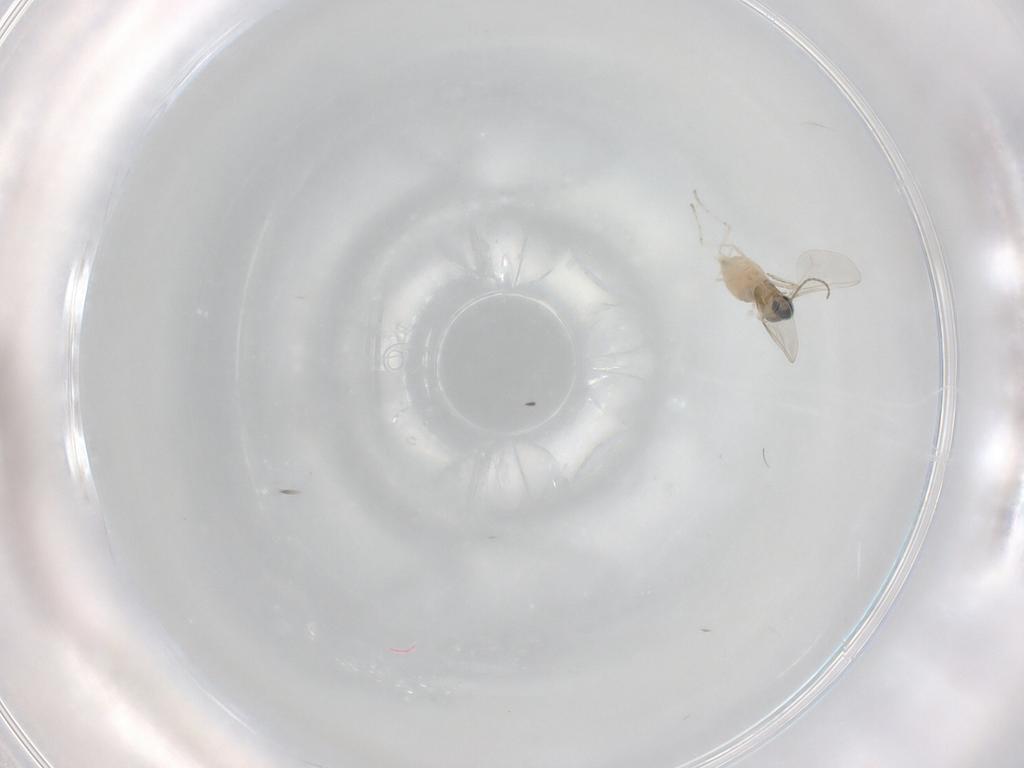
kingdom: Animalia
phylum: Arthropoda
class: Insecta
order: Diptera
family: Cecidomyiidae
